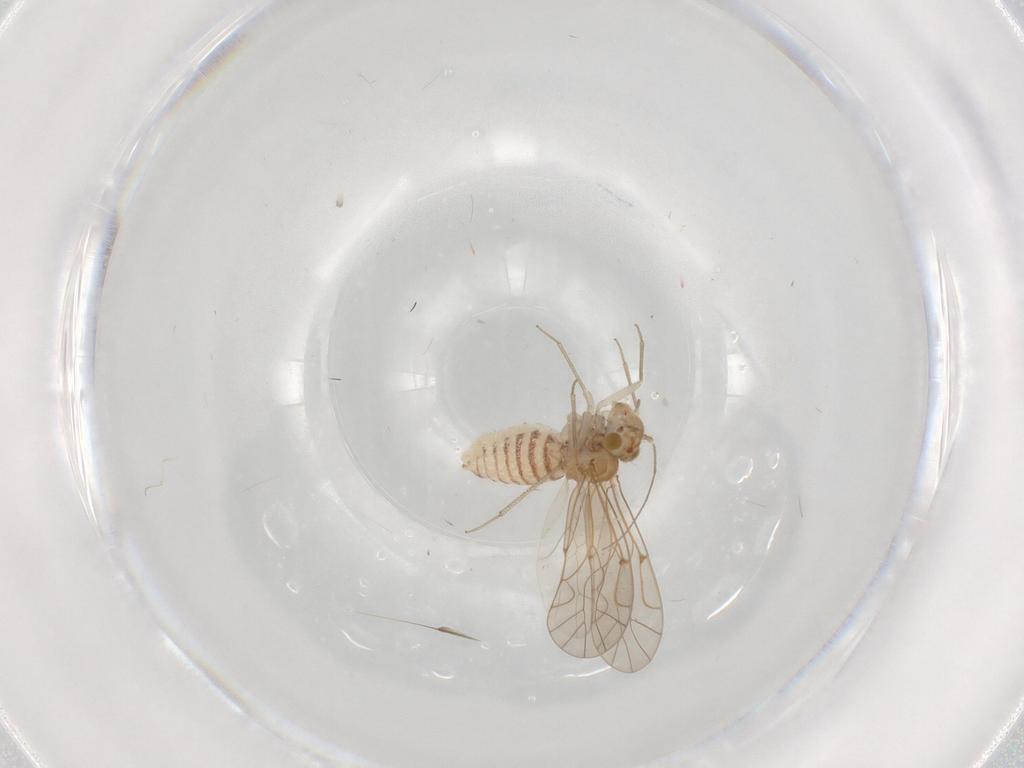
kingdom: Animalia
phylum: Arthropoda
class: Insecta
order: Psocodea
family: Lachesillidae
